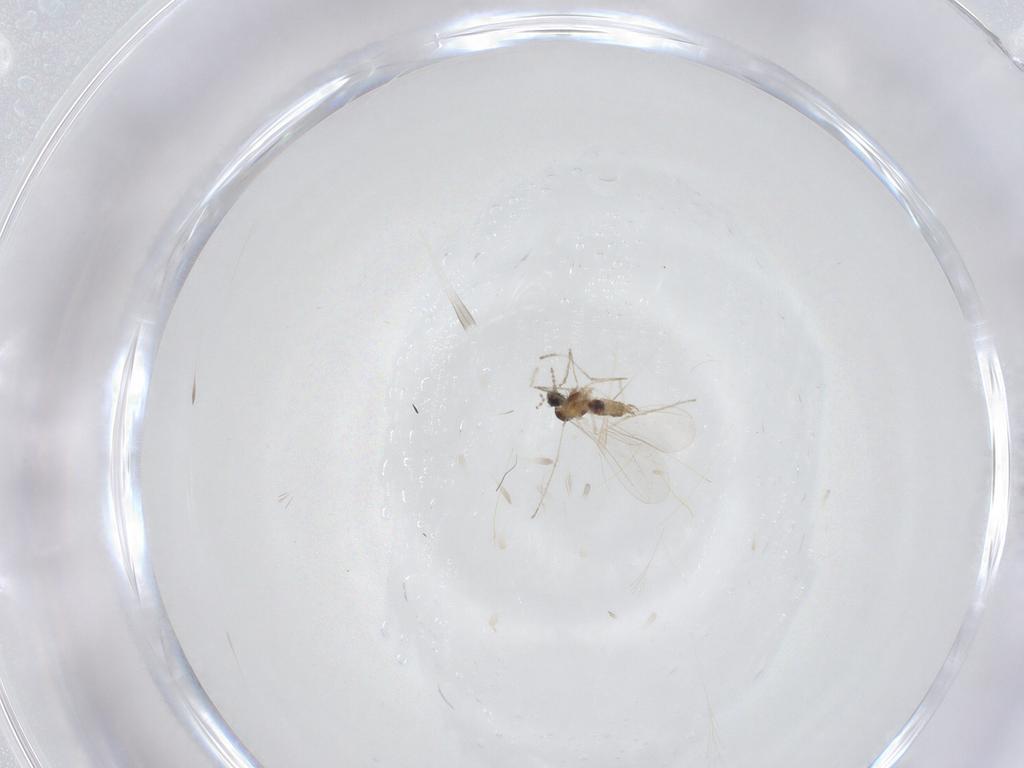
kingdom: Animalia
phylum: Arthropoda
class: Insecta
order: Diptera
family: Cecidomyiidae
